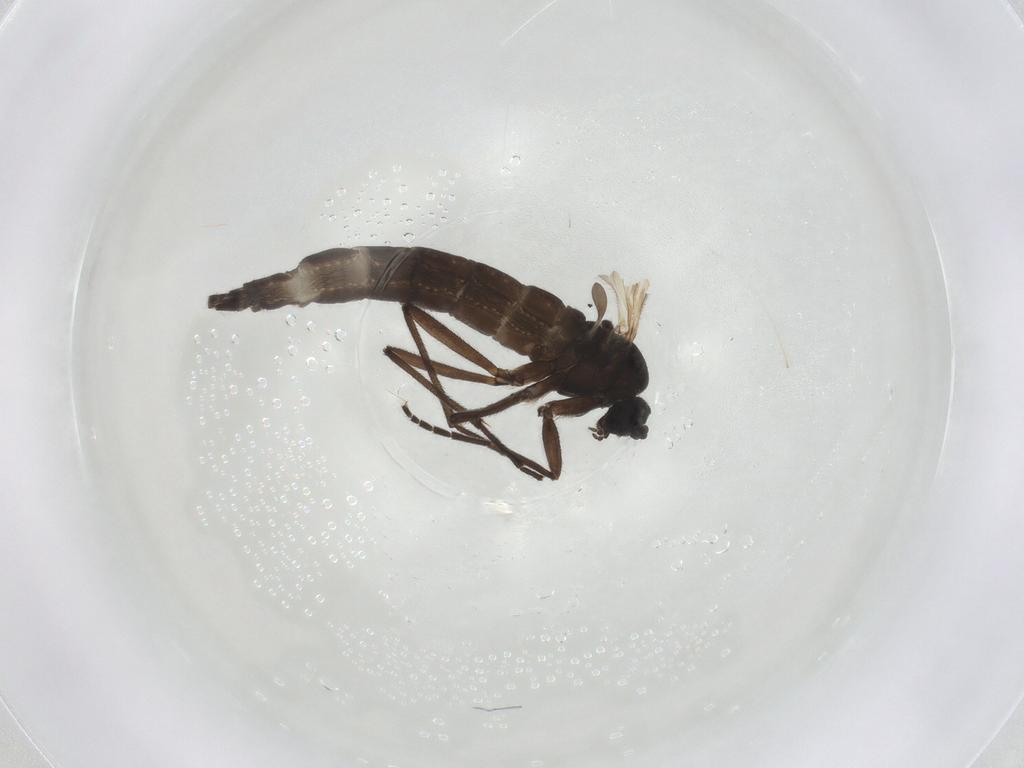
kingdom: Animalia
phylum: Arthropoda
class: Insecta
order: Diptera
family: Sciaridae
